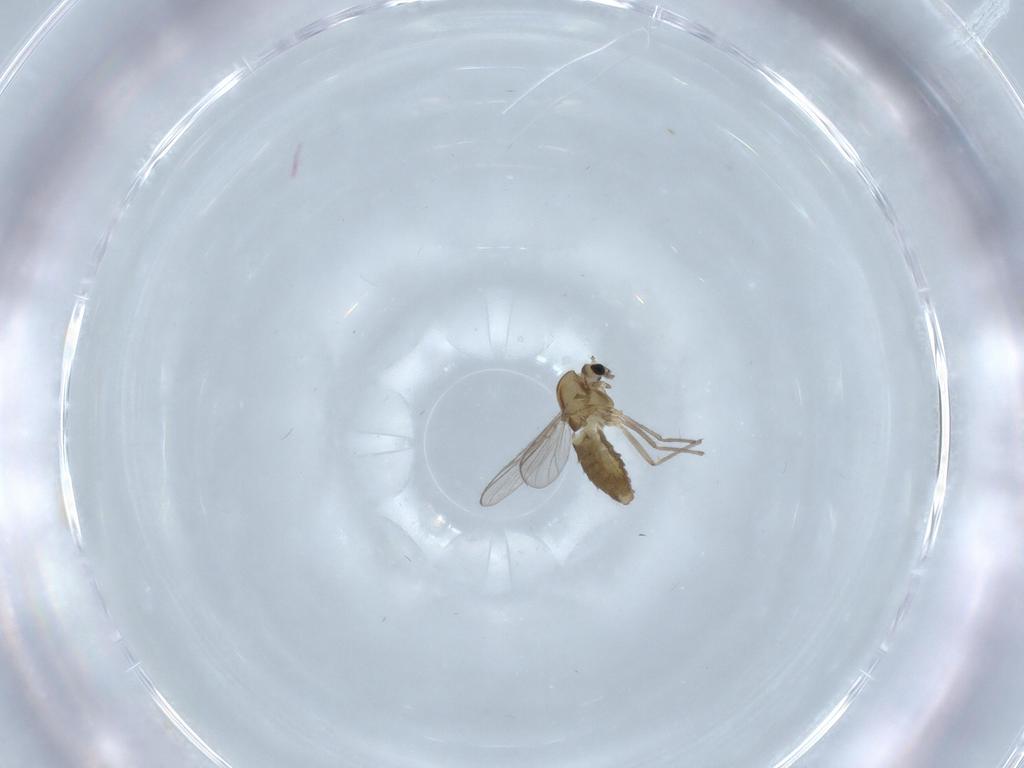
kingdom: Animalia
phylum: Arthropoda
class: Insecta
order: Diptera
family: Chironomidae
